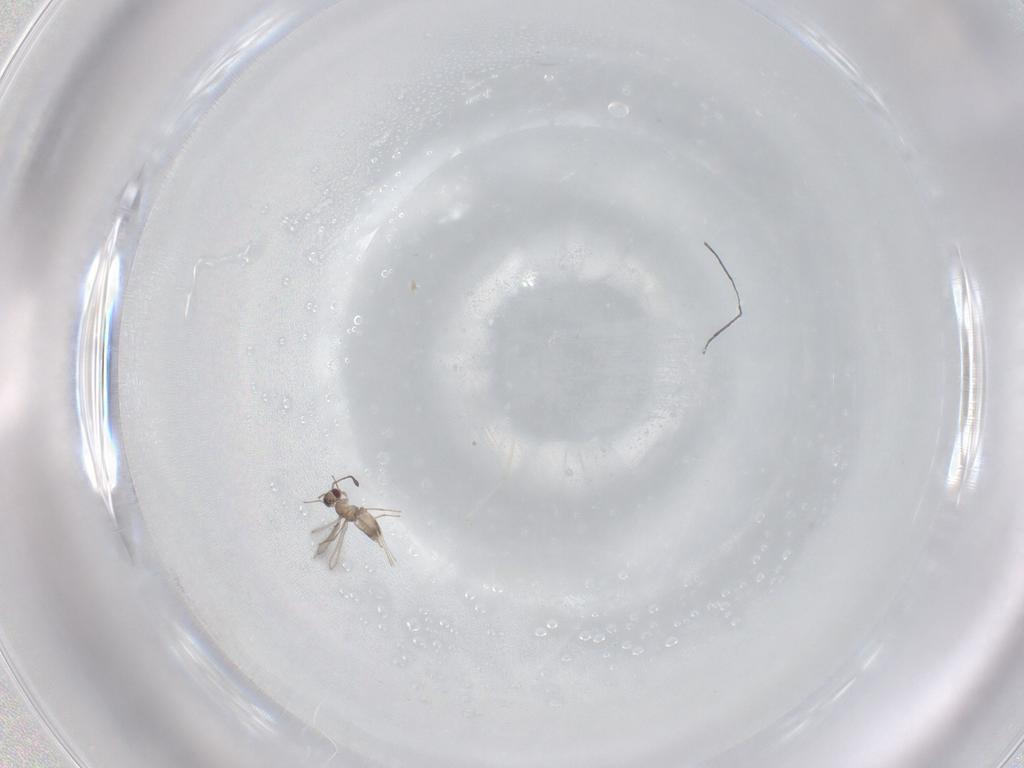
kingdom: Animalia
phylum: Arthropoda
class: Insecta
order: Hymenoptera
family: Mymaridae
